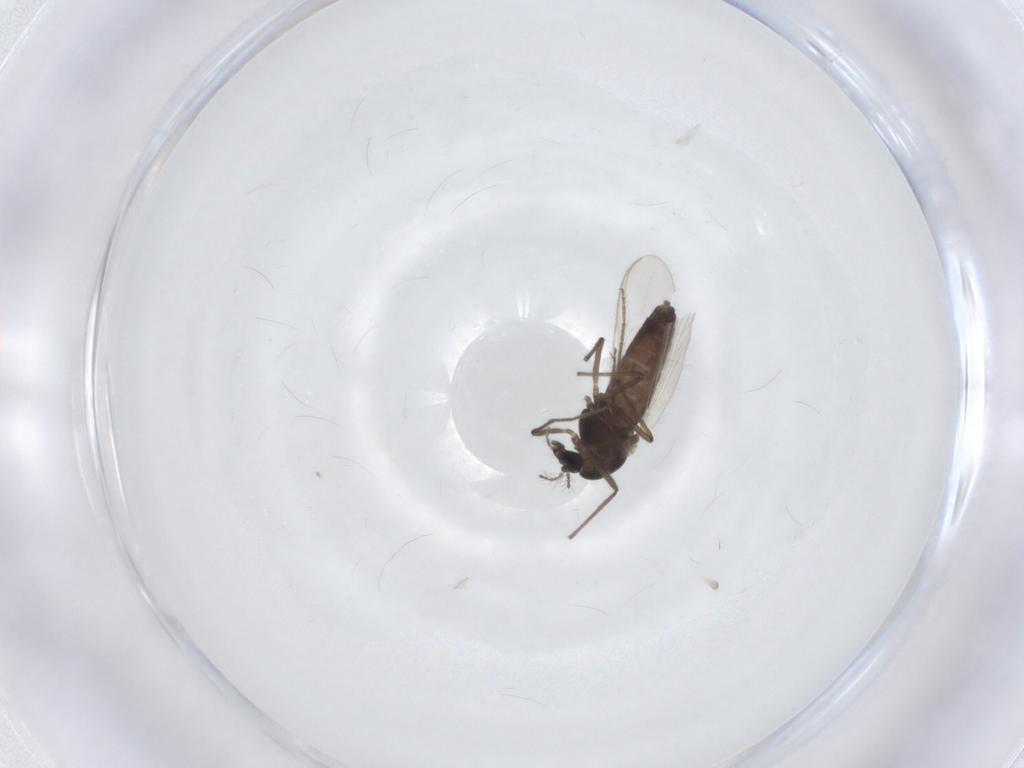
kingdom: Animalia
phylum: Arthropoda
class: Insecta
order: Diptera
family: Chironomidae
